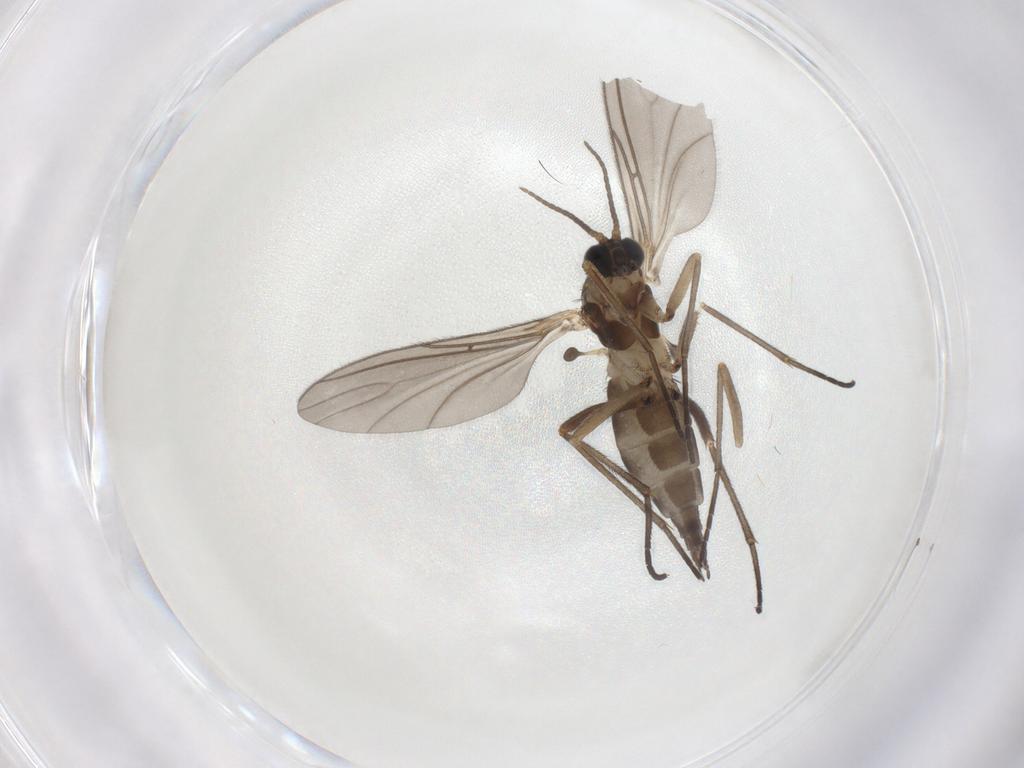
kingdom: Animalia
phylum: Arthropoda
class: Insecta
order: Diptera
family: Sciaridae
